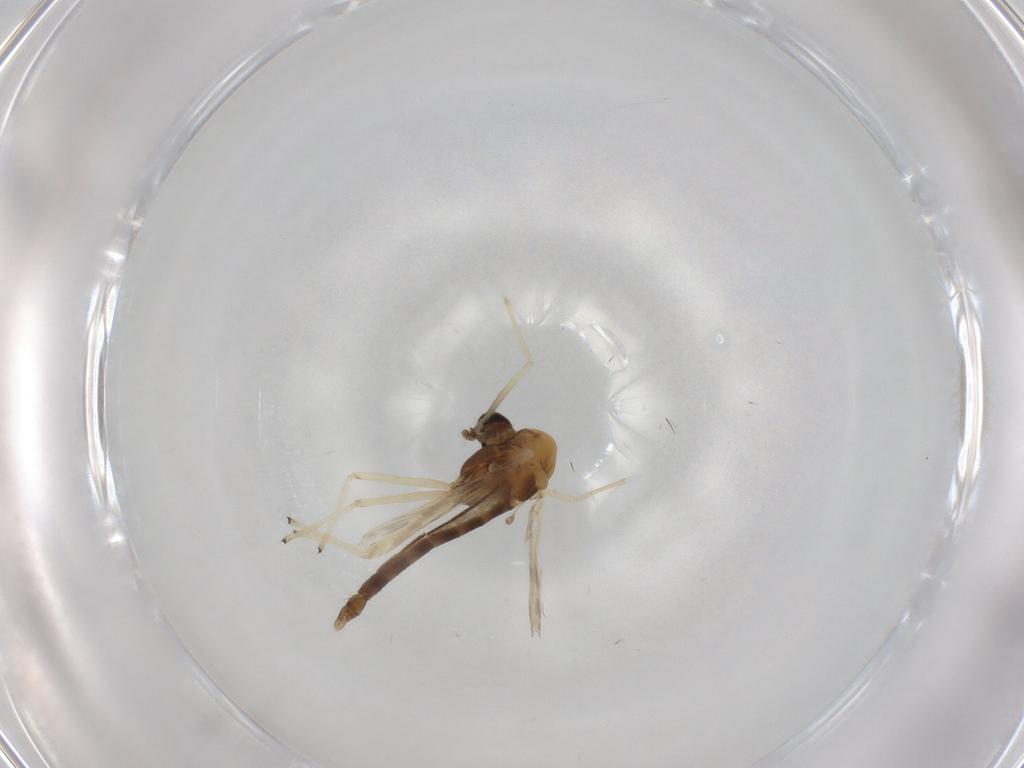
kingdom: Animalia
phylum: Arthropoda
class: Insecta
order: Diptera
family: Chironomidae
